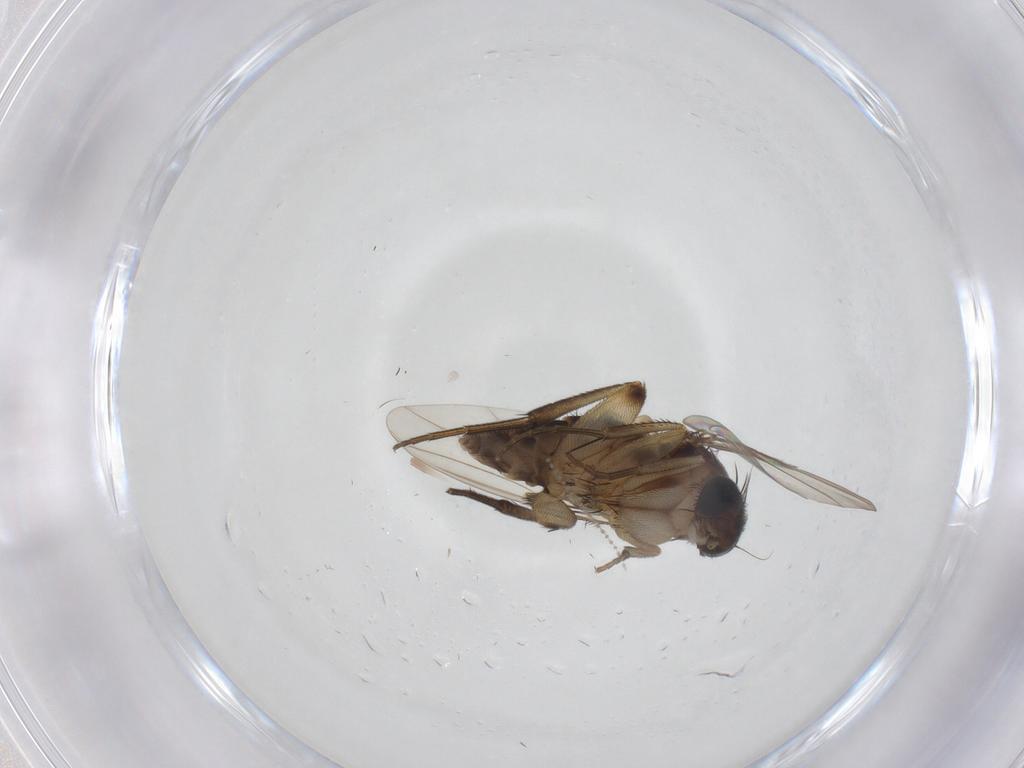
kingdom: Animalia
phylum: Arthropoda
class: Insecta
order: Diptera
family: Phoridae
